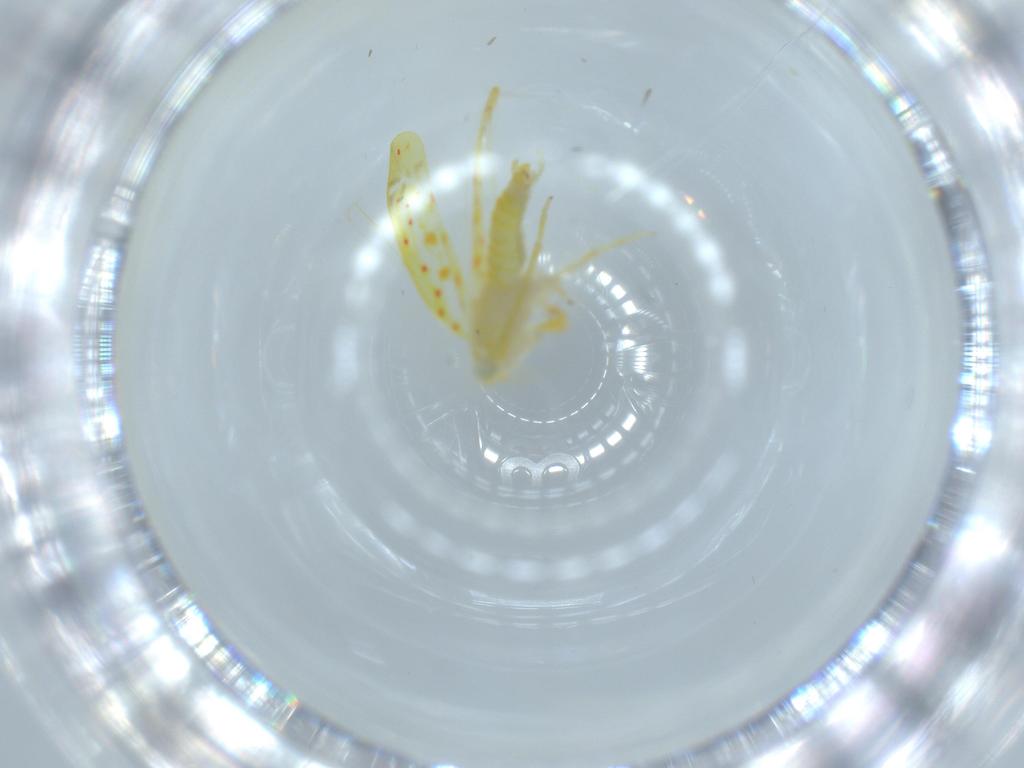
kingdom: Animalia
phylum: Arthropoda
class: Insecta
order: Hemiptera
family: Cicadellidae
